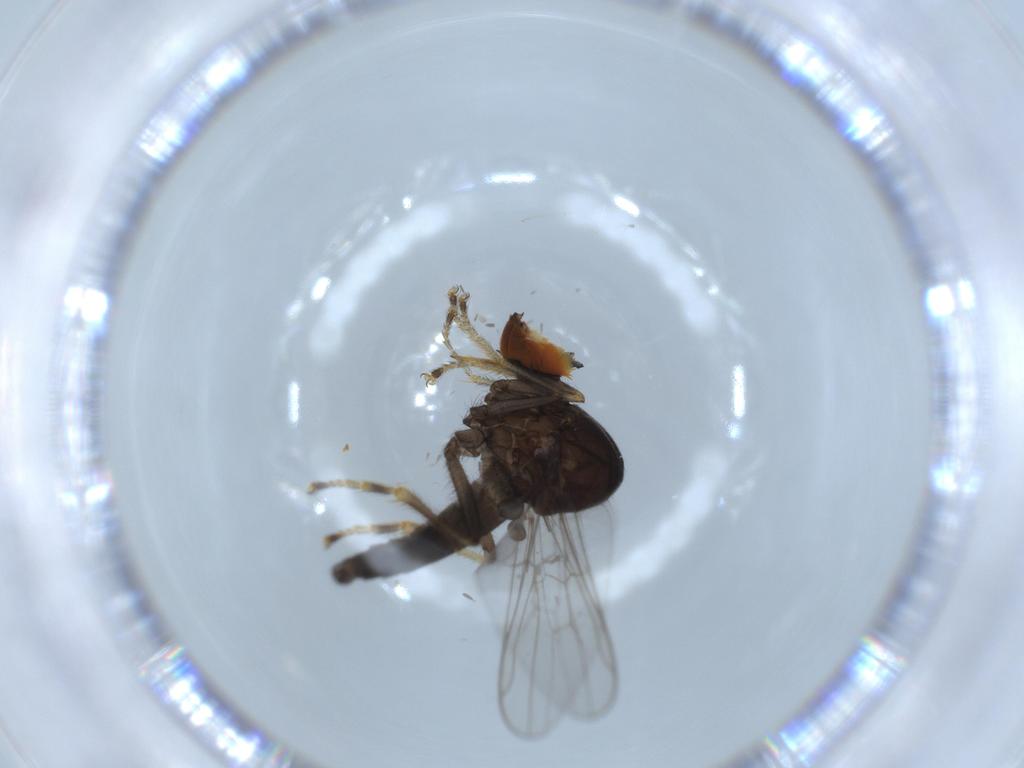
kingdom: Animalia
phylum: Arthropoda
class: Insecta
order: Diptera
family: Hybotidae
